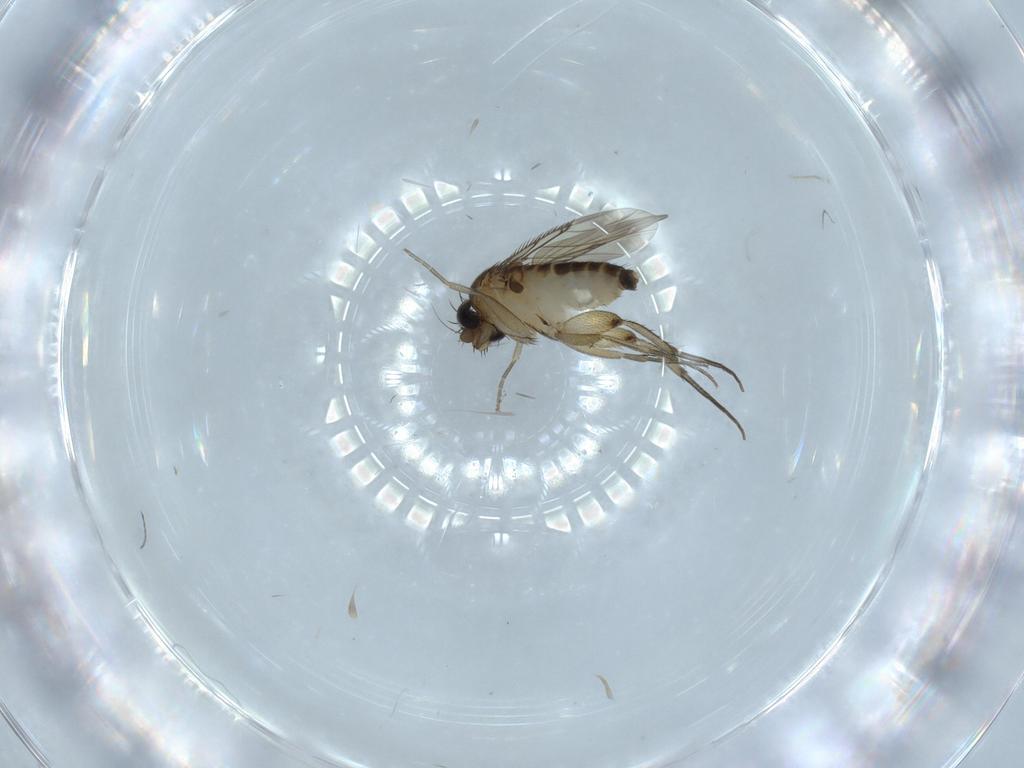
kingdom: Animalia
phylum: Arthropoda
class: Insecta
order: Diptera
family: Phoridae
